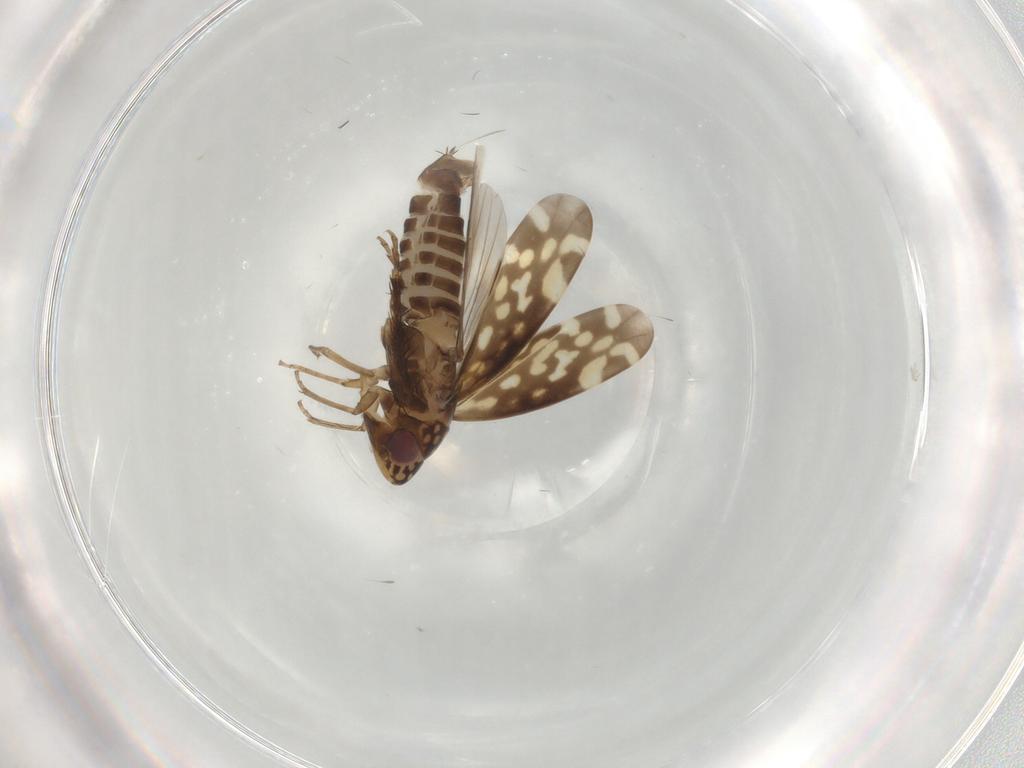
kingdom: Animalia
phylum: Arthropoda
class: Insecta
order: Hemiptera
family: Cicadellidae
